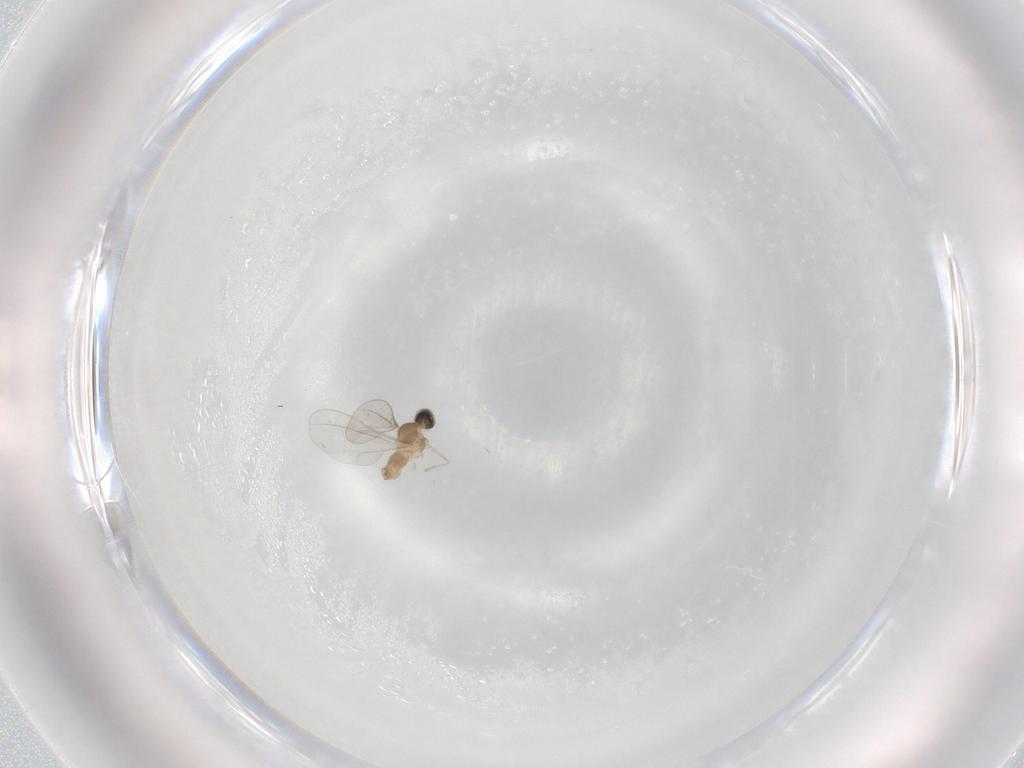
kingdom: Animalia
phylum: Arthropoda
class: Insecta
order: Diptera
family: Cecidomyiidae
